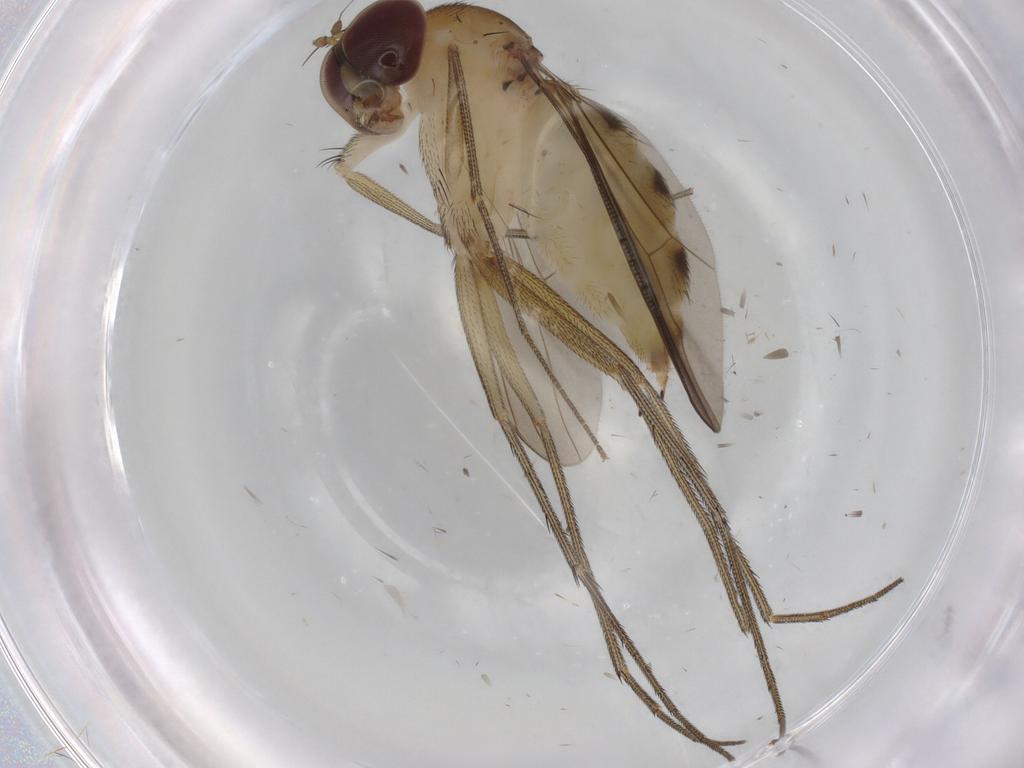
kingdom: Animalia
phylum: Arthropoda
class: Insecta
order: Diptera
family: Dolichopodidae
